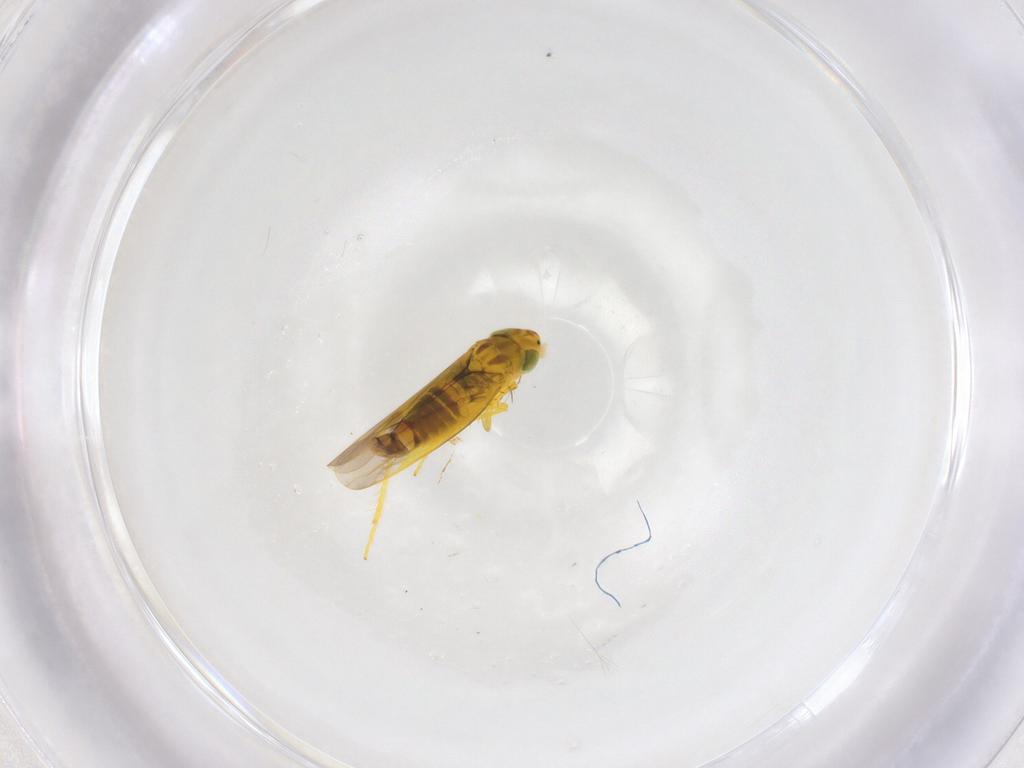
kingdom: Animalia
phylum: Arthropoda
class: Insecta
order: Hemiptera
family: Cicadellidae
